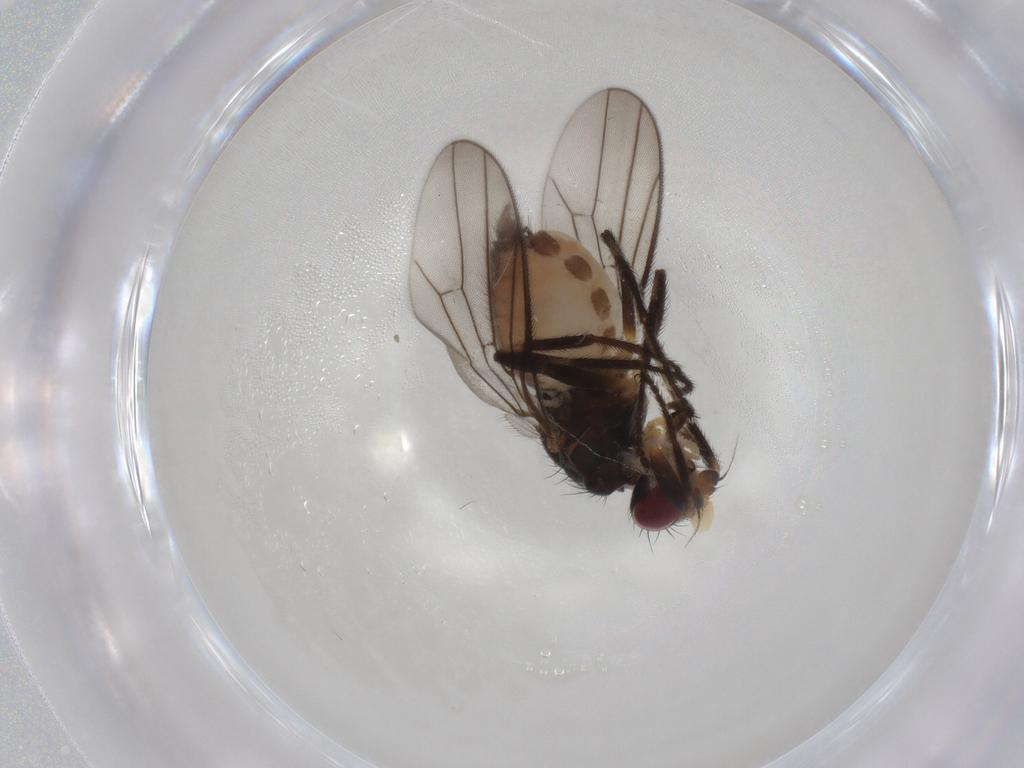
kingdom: Animalia
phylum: Arthropoda
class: Insecta
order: Diptera
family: Chloropidae
